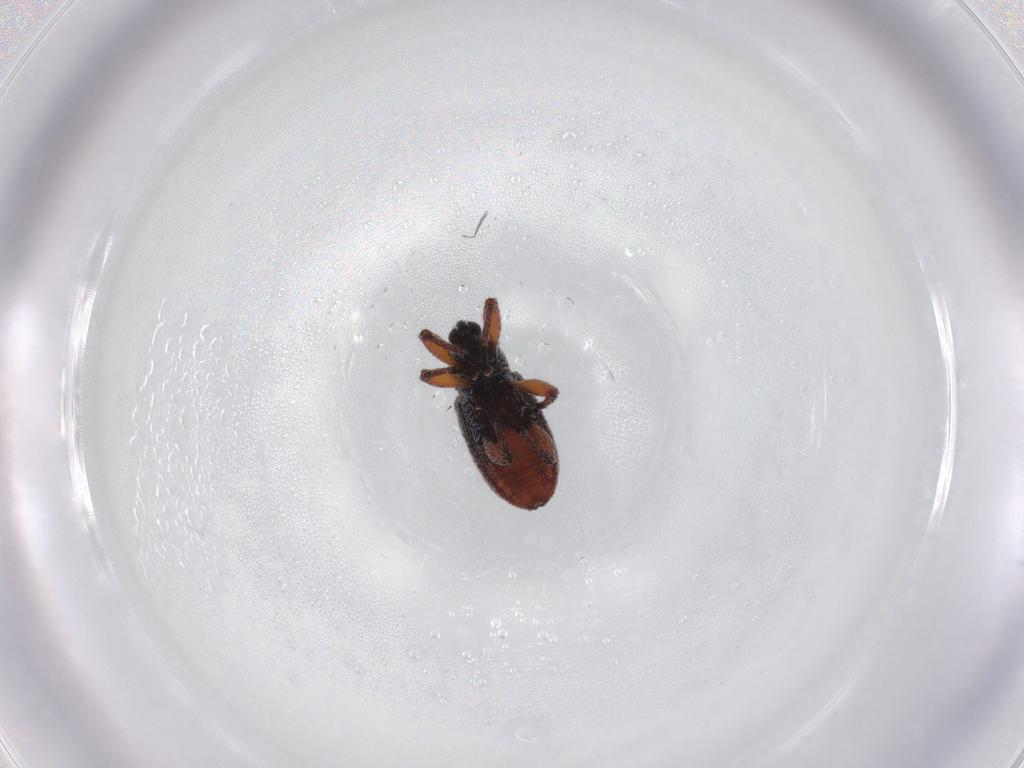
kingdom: Animalia
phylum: Arthropoda
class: Insecta
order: Coleoptera
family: Curculionidae
